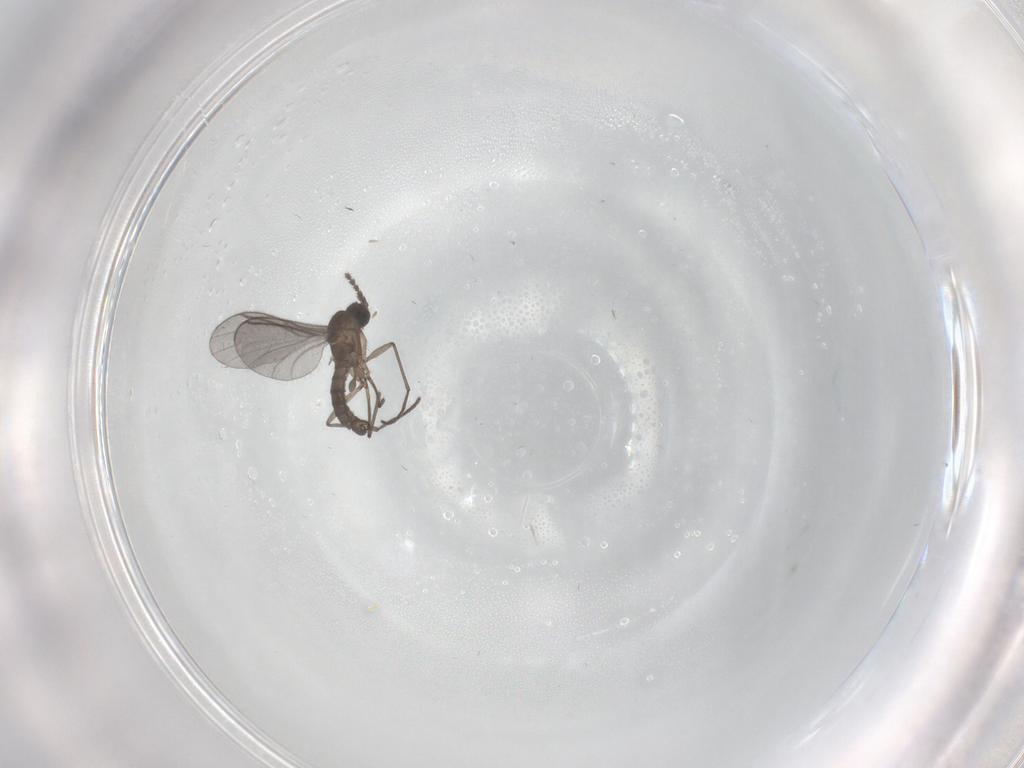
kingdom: Animalia
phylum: Arthropoda
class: Insecta
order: Diptera
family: Sciaridae
